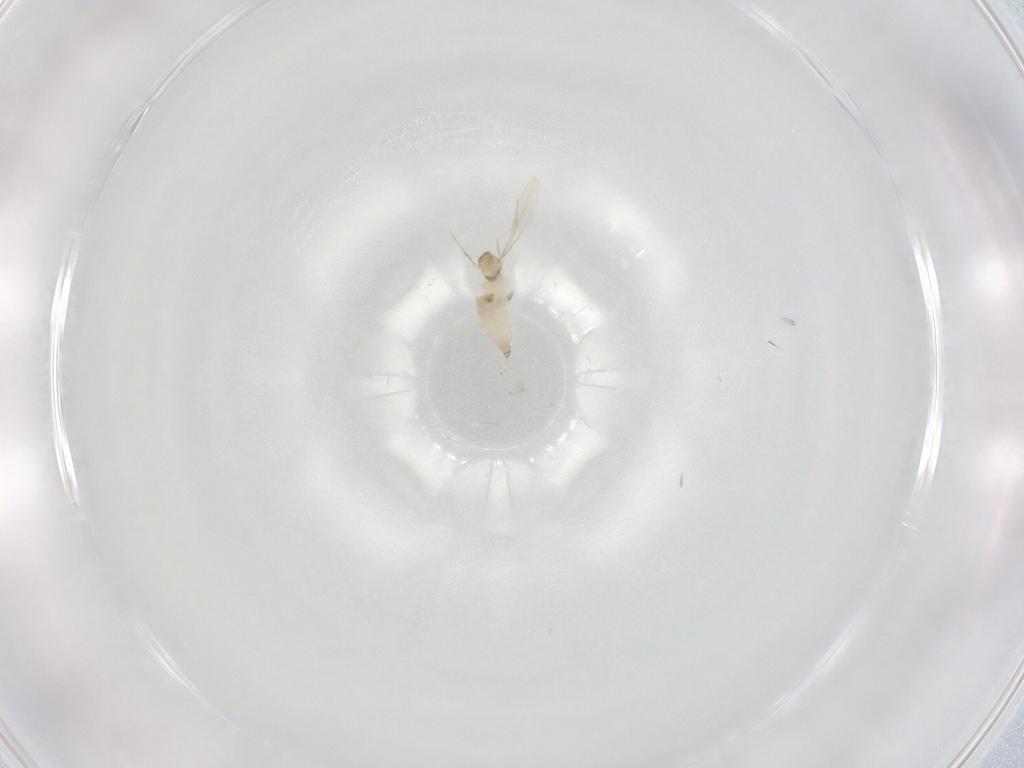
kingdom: Animalia
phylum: Arthropoda
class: Insecta
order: Diptera
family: Cecidomyiidae
